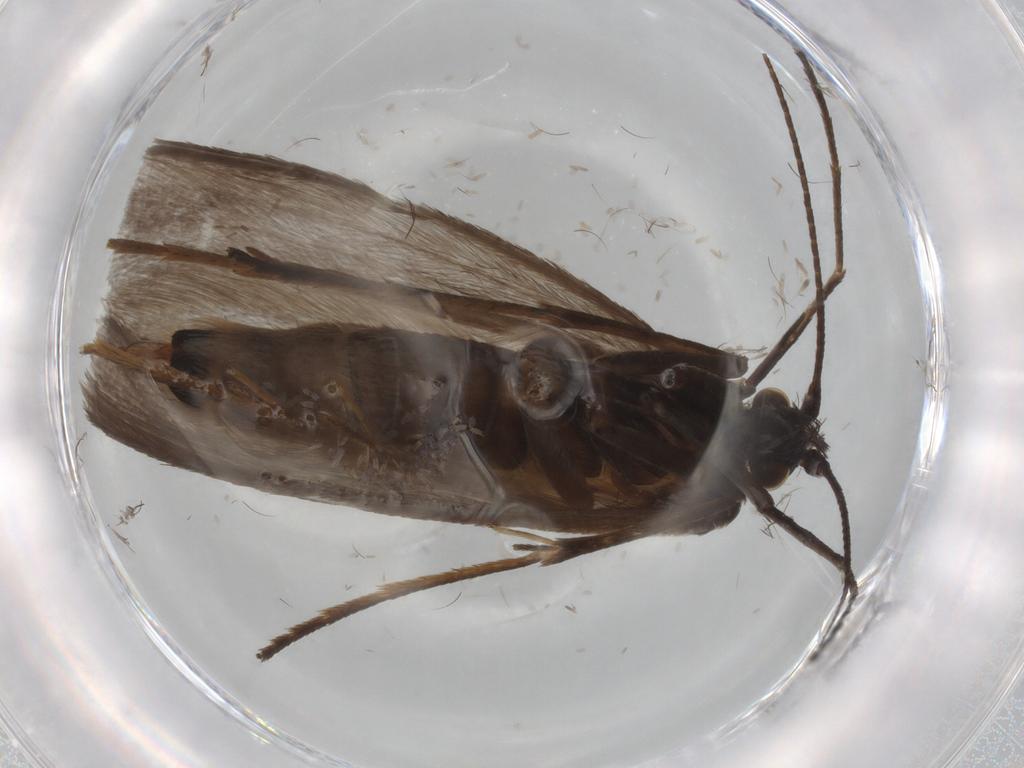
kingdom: Animalia
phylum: Arthropoda
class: Insecta
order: Lepidoptera
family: Adelidae
